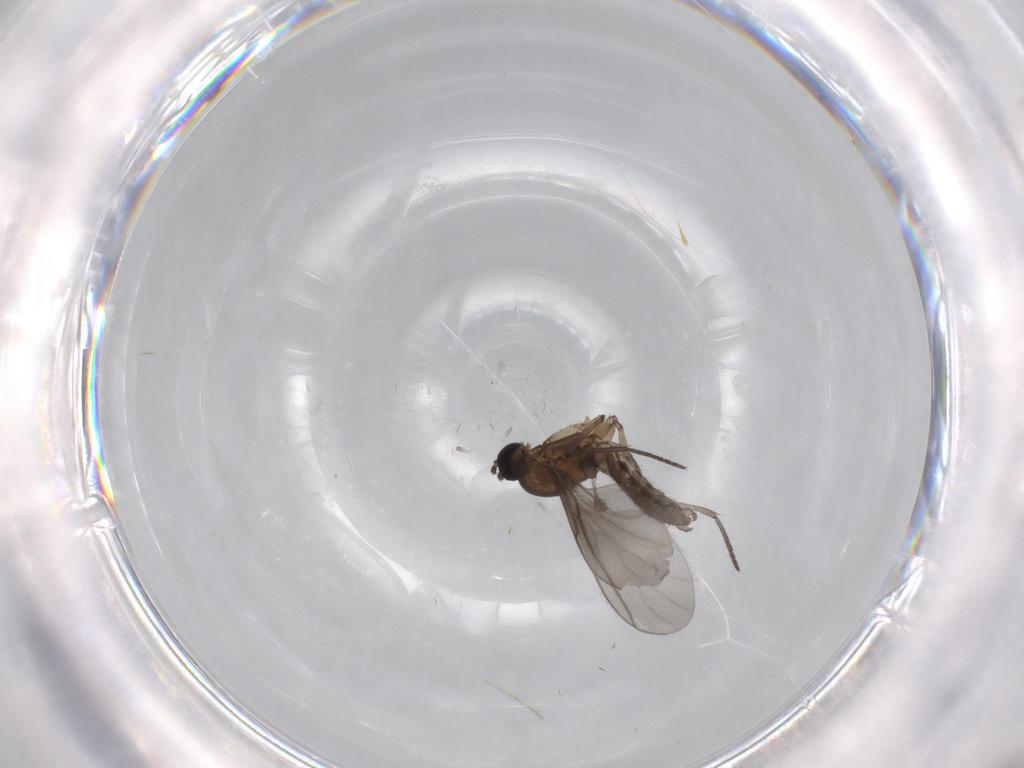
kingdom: Animalia
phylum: Arthropoda
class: Insecta
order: Diptera
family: Sciaridae
